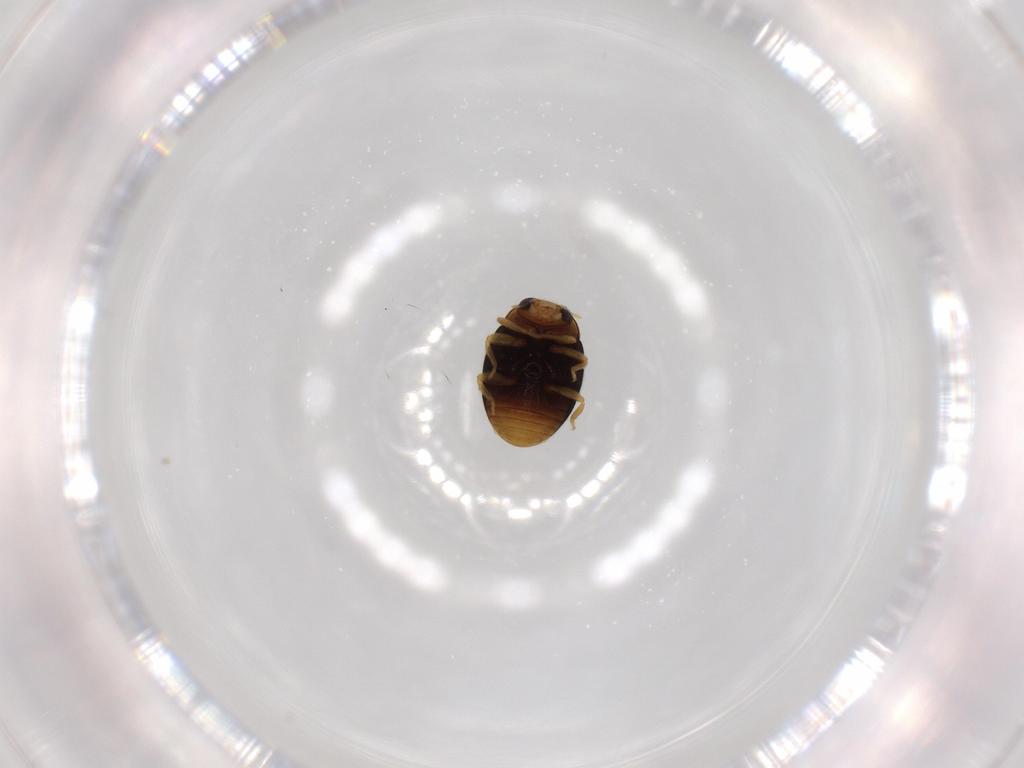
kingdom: Animalia
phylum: Arthropoda
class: Insecta
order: Coleoptera
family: Coccinellidae
